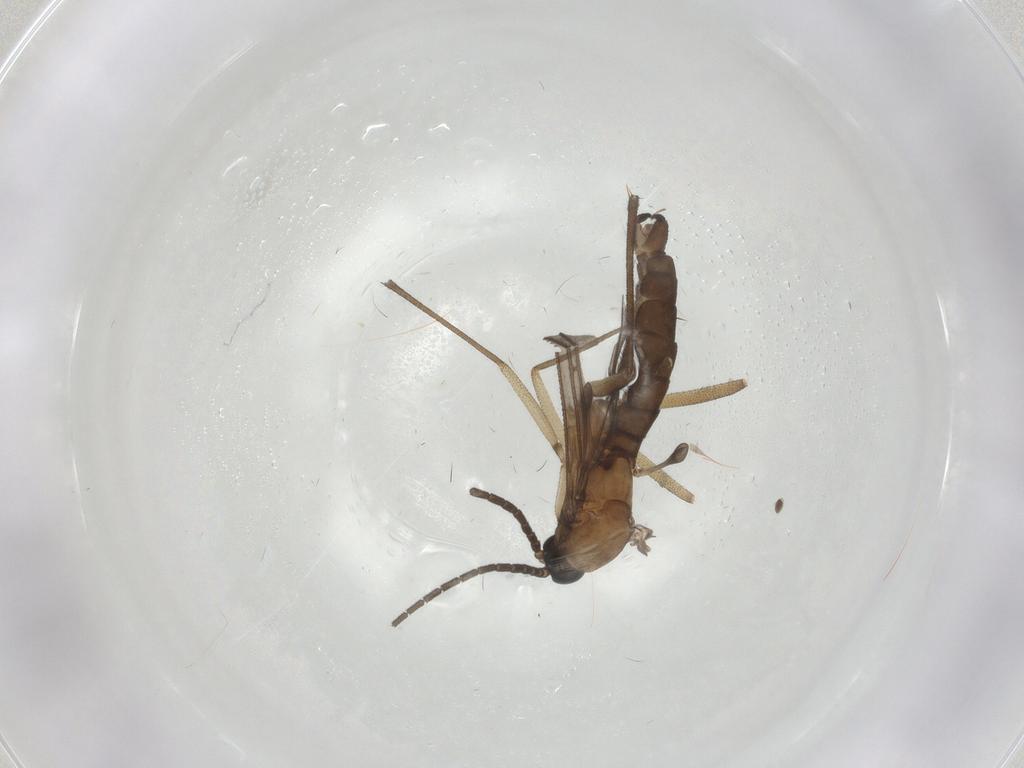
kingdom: Animalia
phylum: Arthropoda
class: Insecta
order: Diptera
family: Sciaridae
